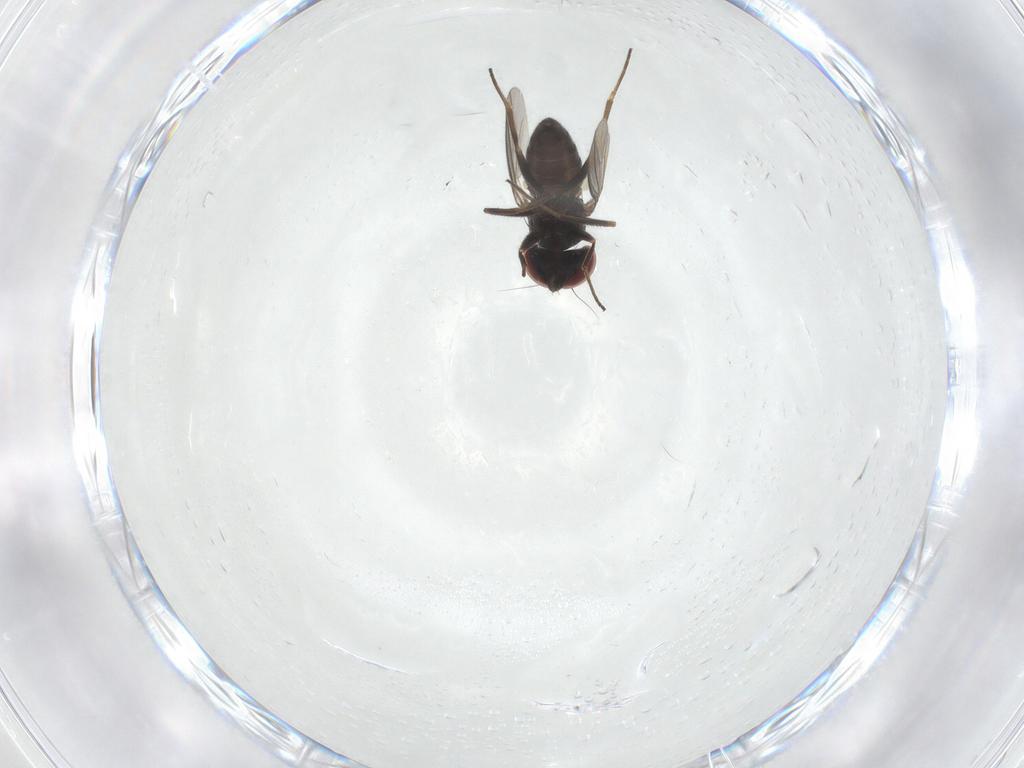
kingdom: Animalia
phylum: Arthropoda
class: Insecta
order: Diptera
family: Dolichopodidae
